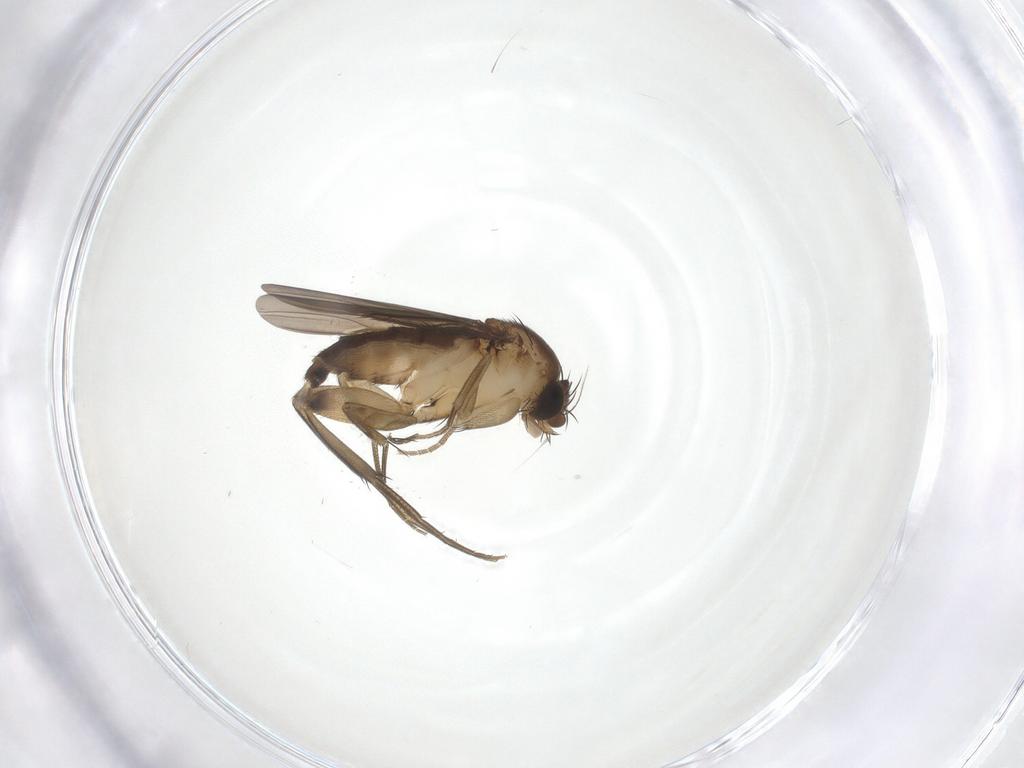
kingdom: Animalia
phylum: Arthropoda
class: Insecta
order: Diptera
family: Phoridae
